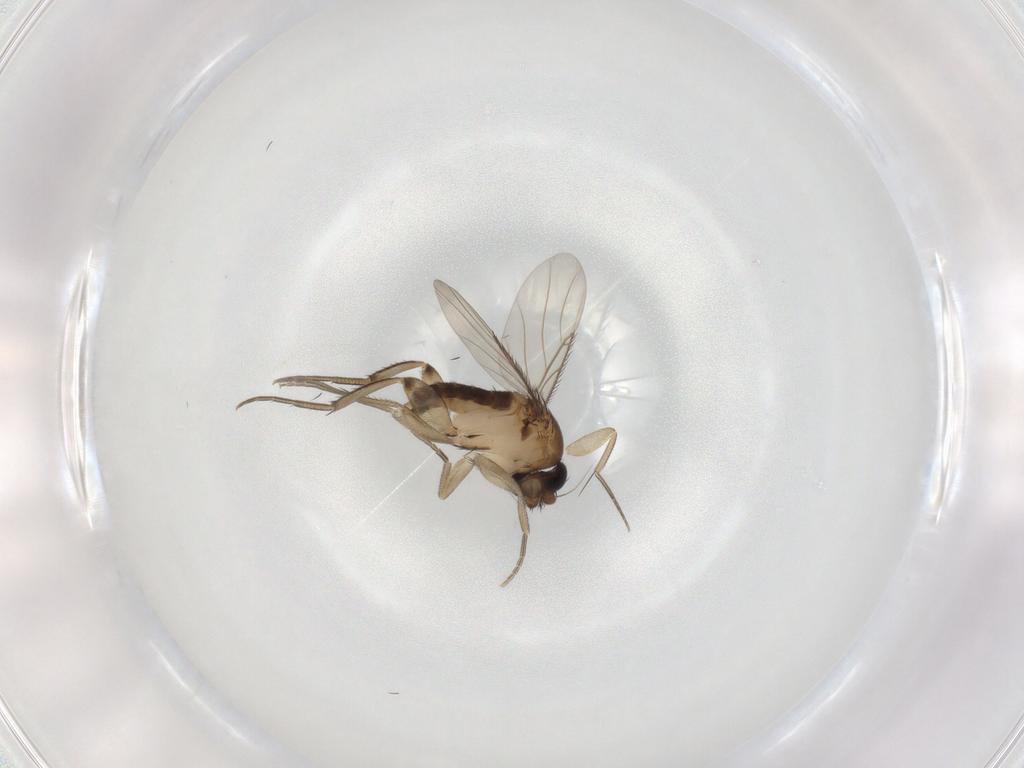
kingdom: Animalia
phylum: Arthropoda
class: Insecta
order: Diptera
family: Phoridae
